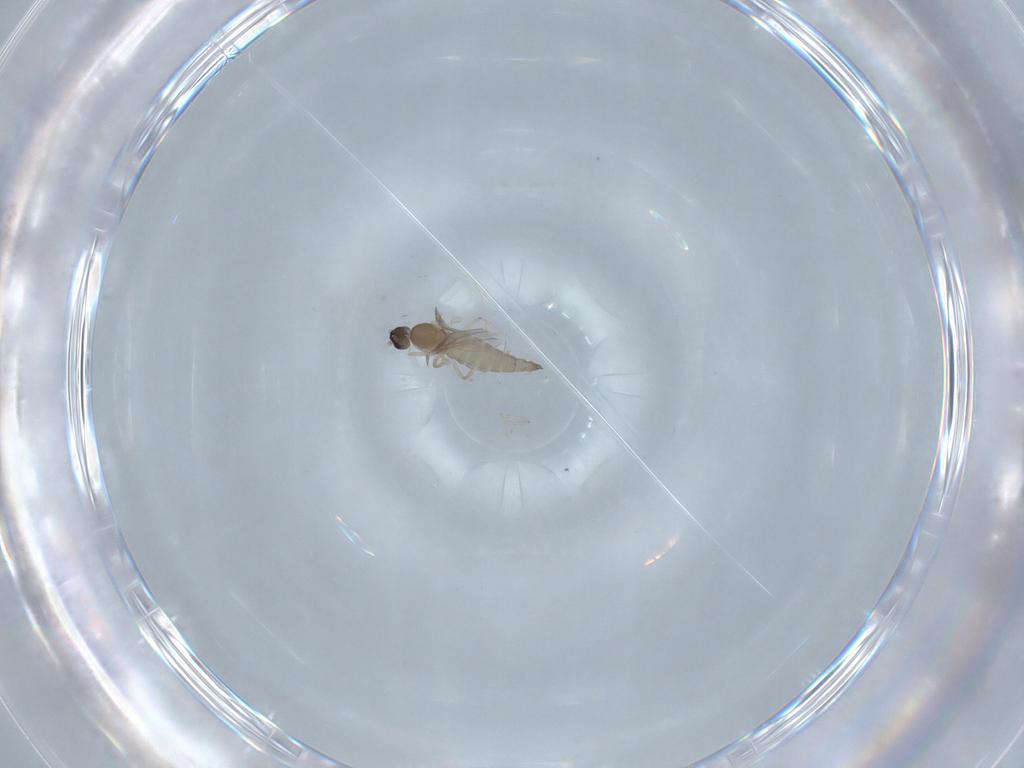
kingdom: Animalia
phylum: Arthropoda
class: Insecta
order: Diptera
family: Cecidomyiidae
